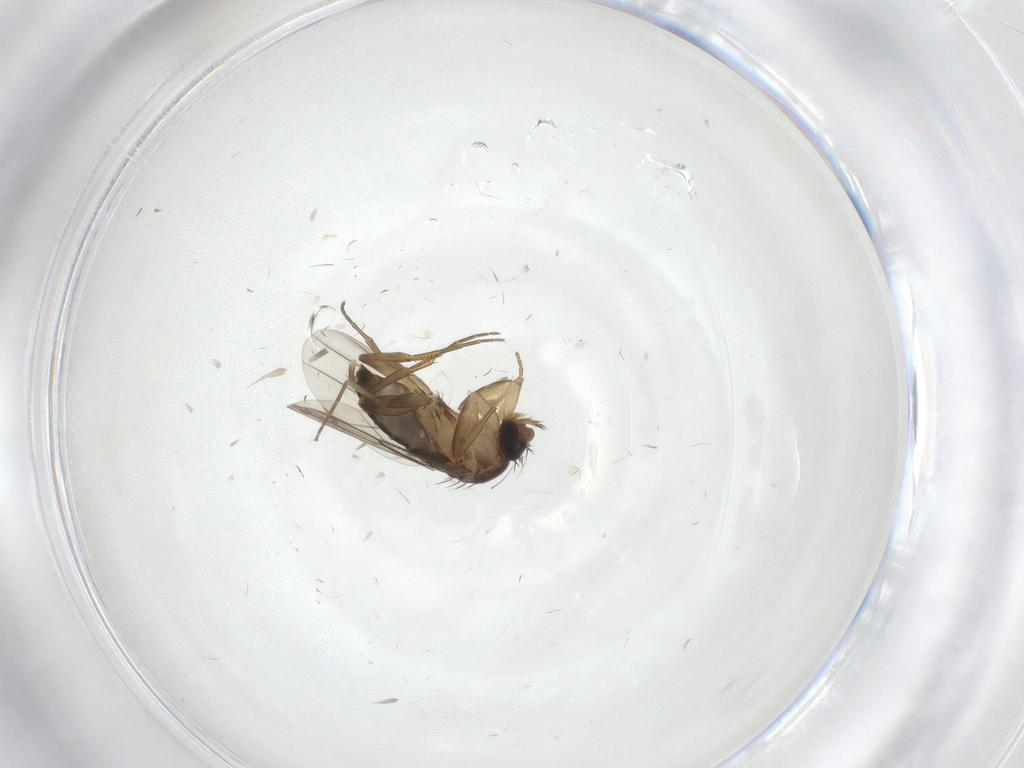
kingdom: Animalia
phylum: Arthropoda
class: Insecta
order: Diptera
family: Phoridae
